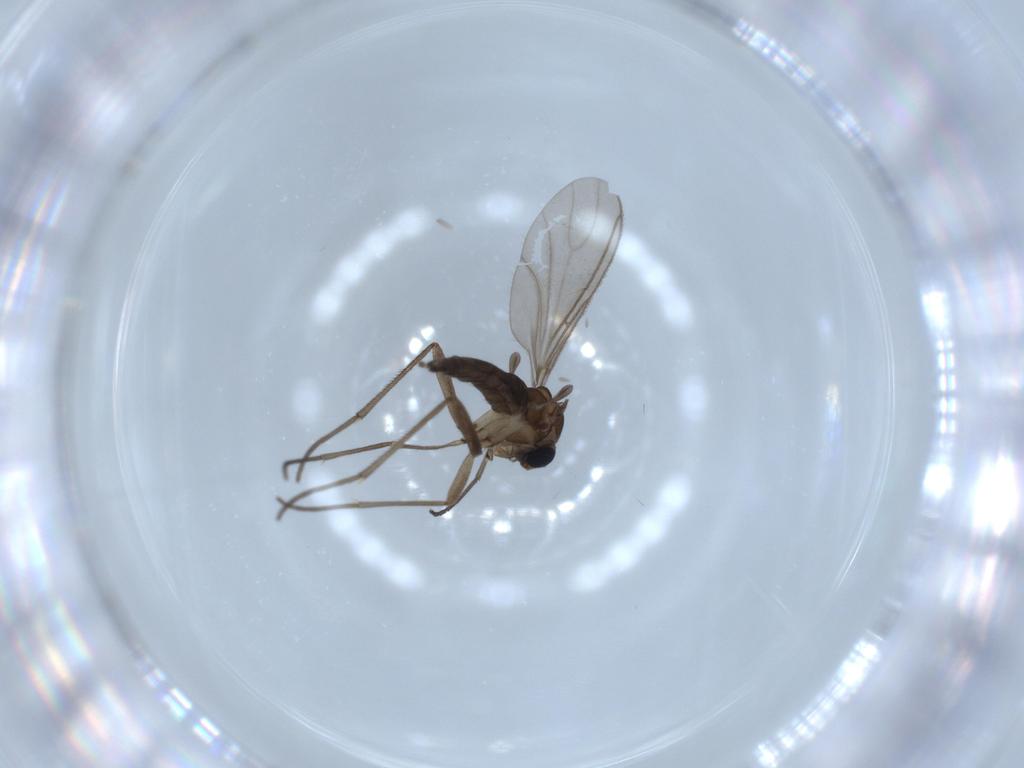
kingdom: Animalia
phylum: Arthropoda
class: Insecta
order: Diptera
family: Sciaridae
